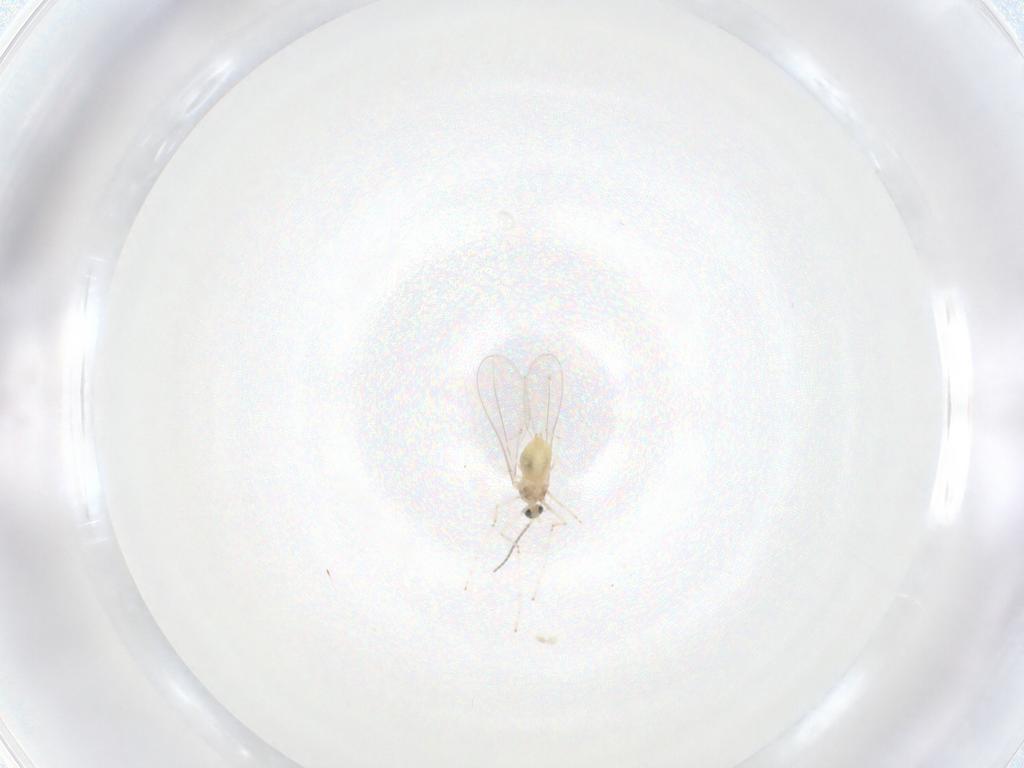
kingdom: Animalia
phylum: Arthropoda
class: Insecta
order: Diptera
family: Cecidomyiidae
